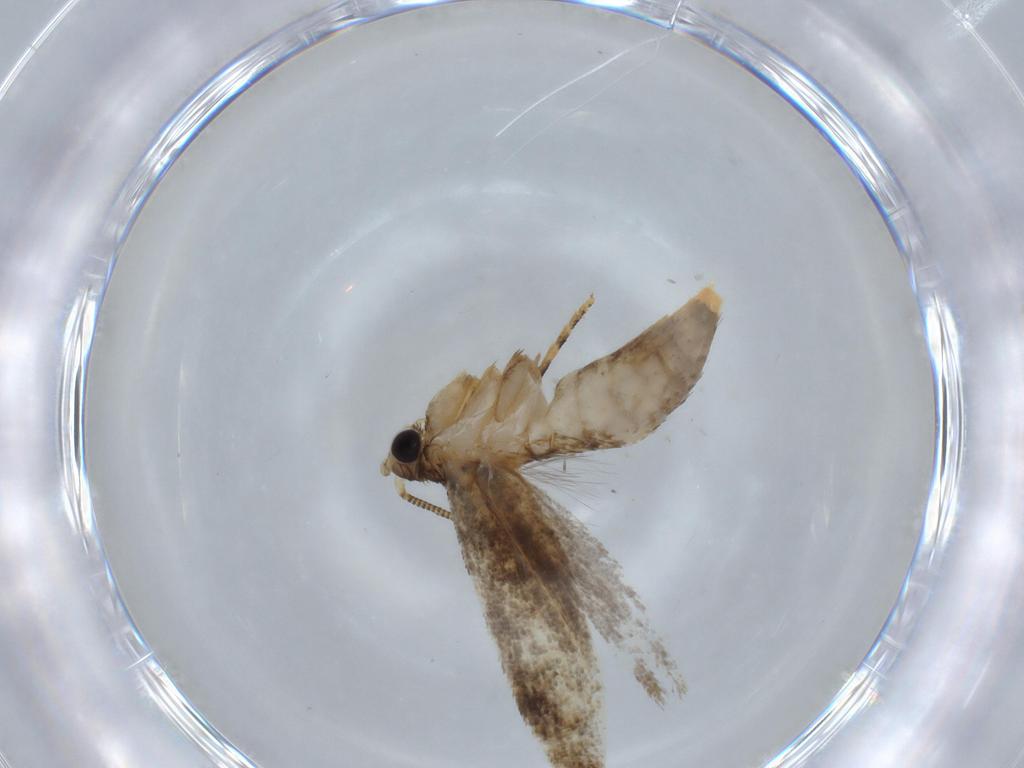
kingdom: Animalia
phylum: Arthropoda
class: Insecta
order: Lepidoptera
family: Tineidae
